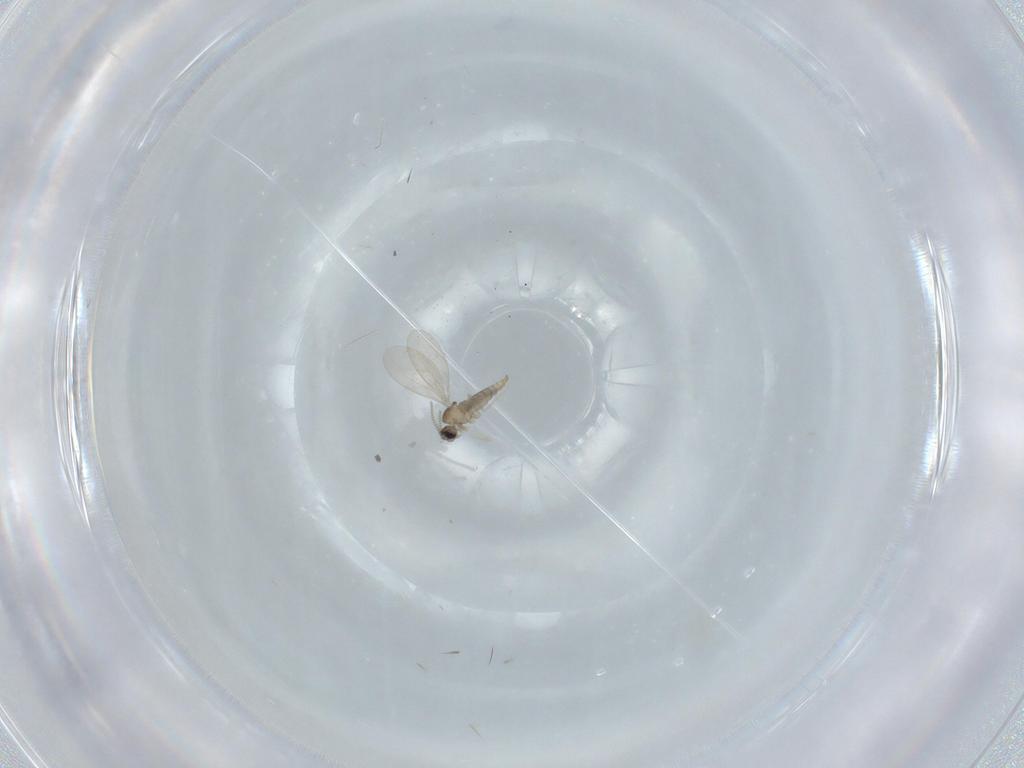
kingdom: Animalia
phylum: Arthropoda
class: Insecta
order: Diptera
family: Cecidomyiidae
